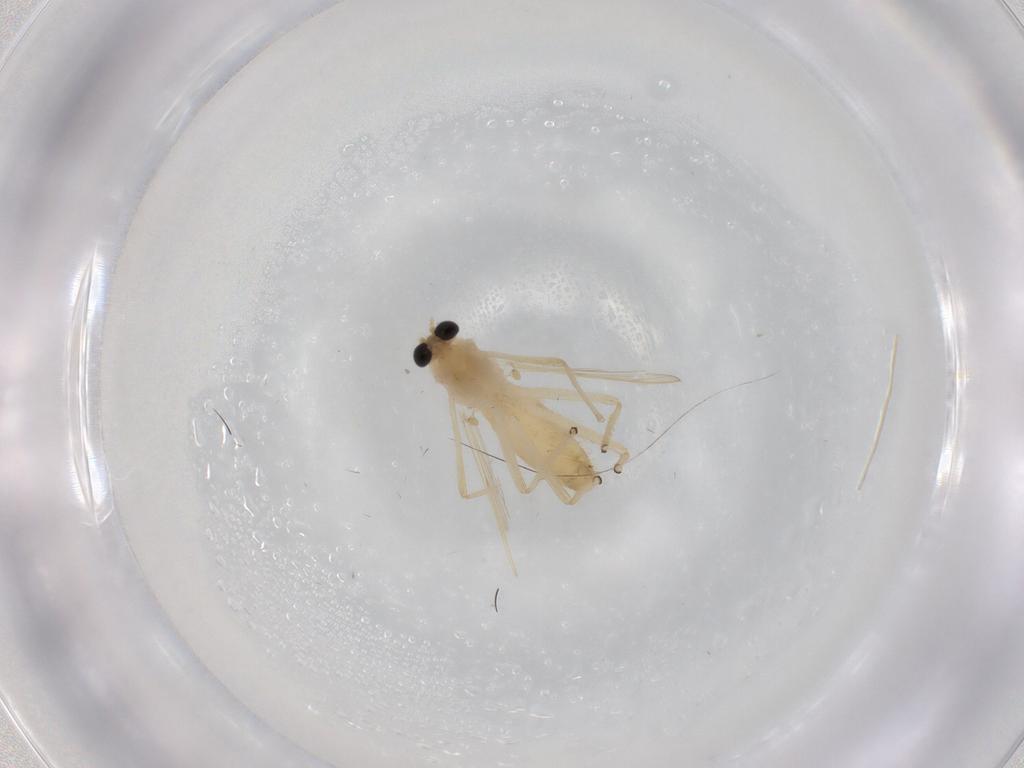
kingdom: Animalia
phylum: Arthropoda
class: Insecta
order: Diptera
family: Chironomidae
